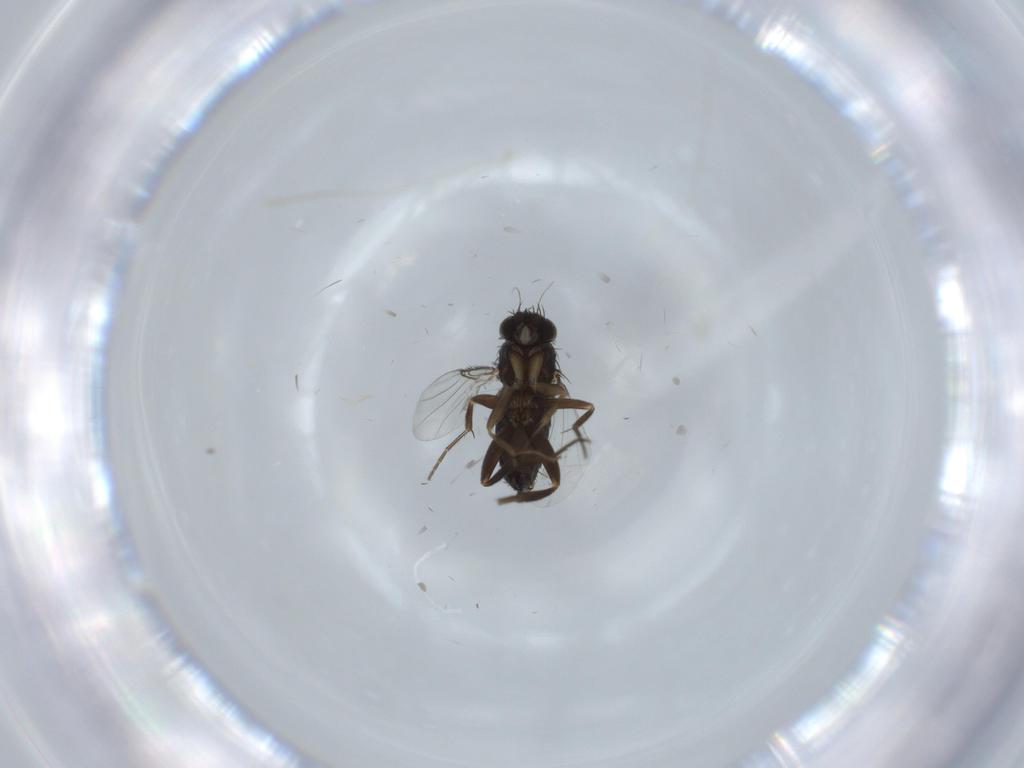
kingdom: Animalia
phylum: Arthropoda
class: Insecta
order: Diptera
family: Phoridae
